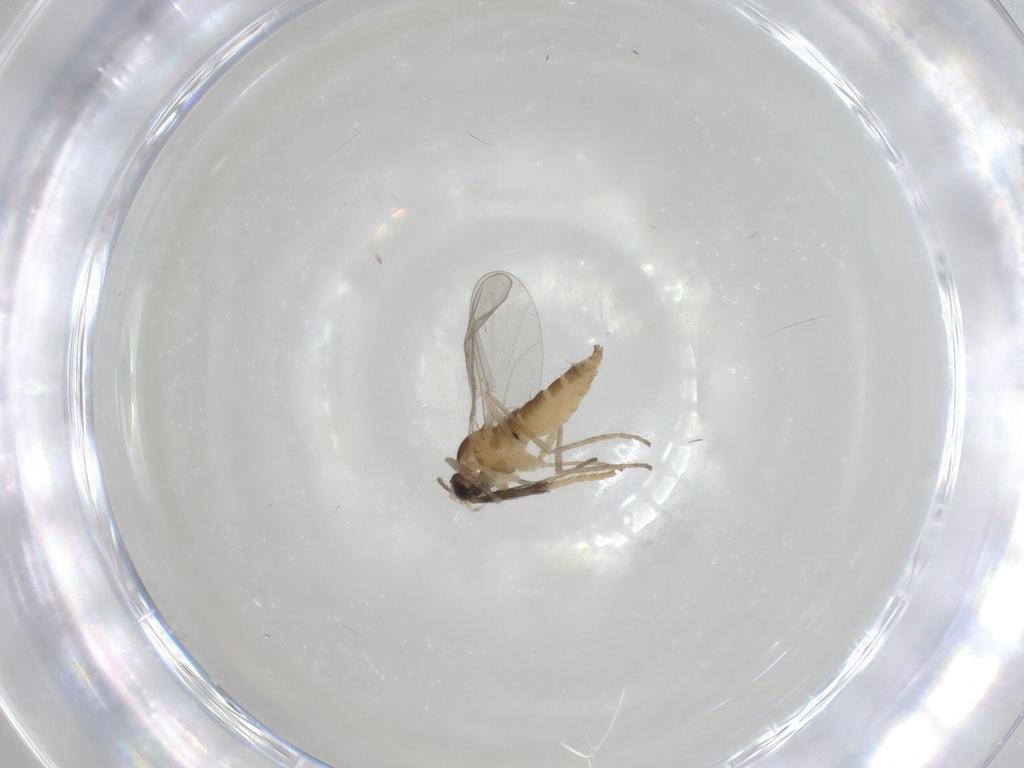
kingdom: Animalia
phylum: Arthropoda
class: Insecta
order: Diptera
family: Cecidomyiidae
